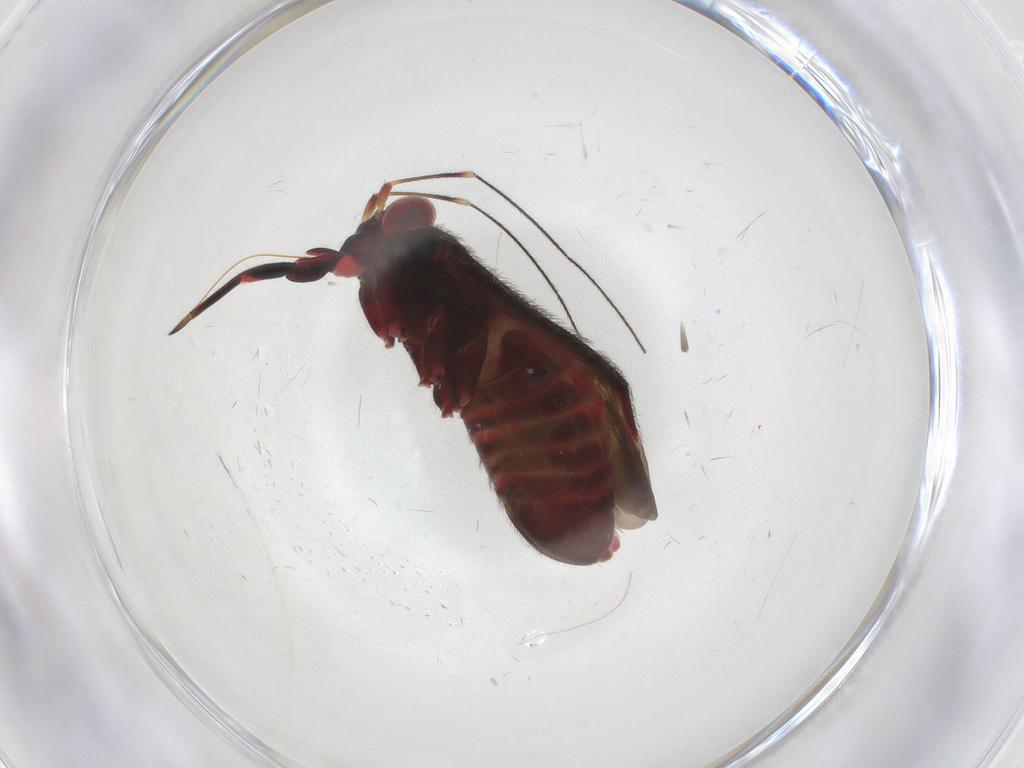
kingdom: Animalia
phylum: Arthropoda
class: Insecta
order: Hemiptera
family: Miridae
